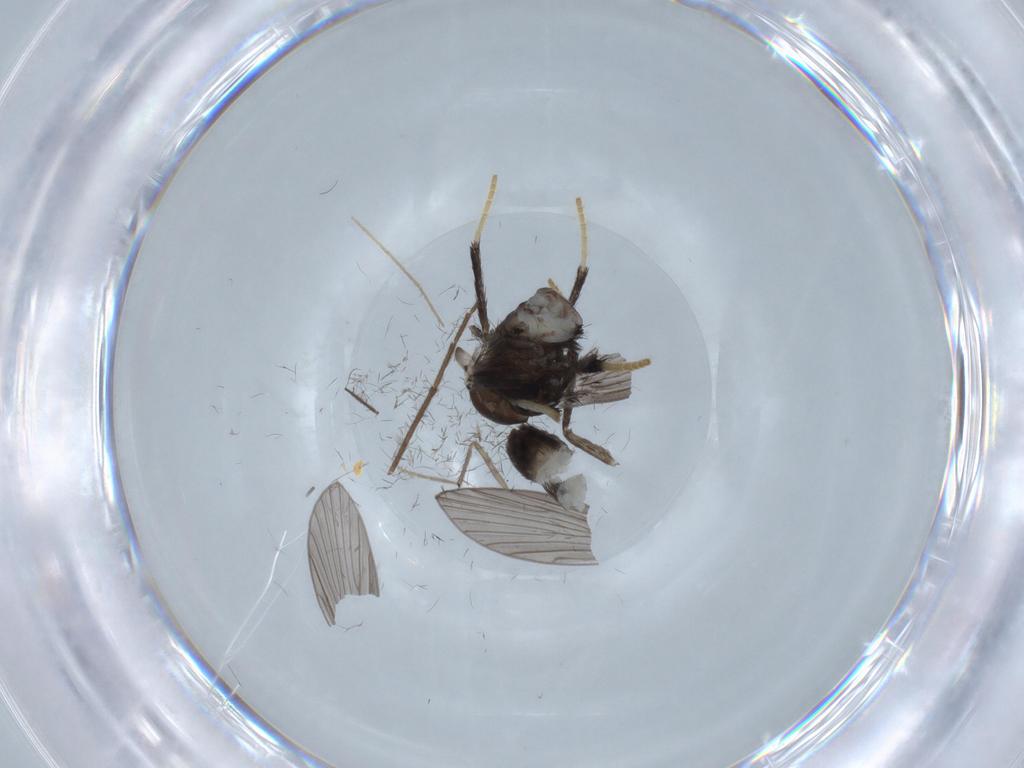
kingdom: Animalia
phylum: Arthropoda
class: Insecta
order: Diptera
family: Psychodidae
